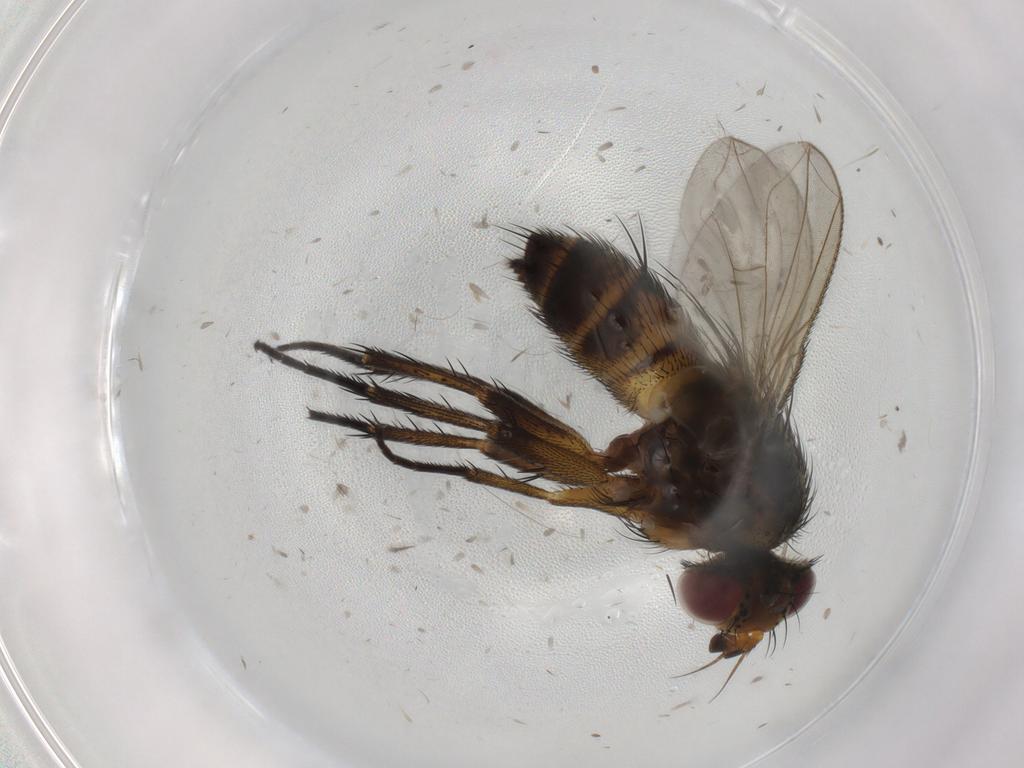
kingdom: Animalia
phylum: Arthropoda
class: Insecta
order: Diptera
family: Tachinidae
